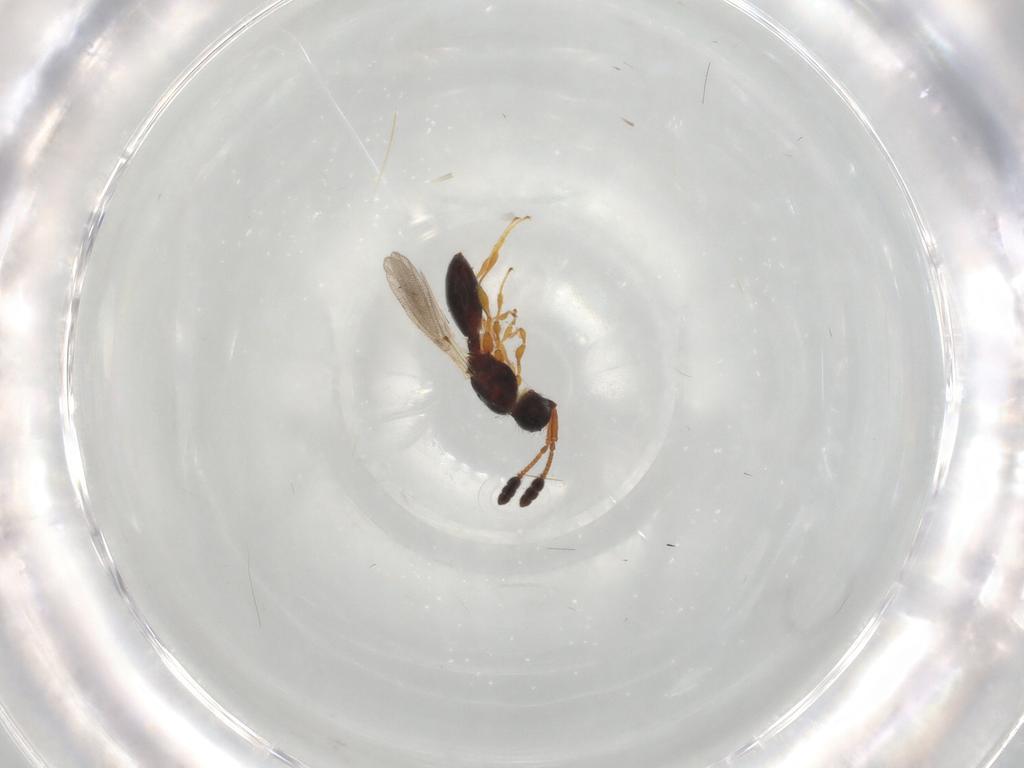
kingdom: Animalia
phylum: Arthropoda
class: Insecta
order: Hymenoptera
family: Diapriidae
